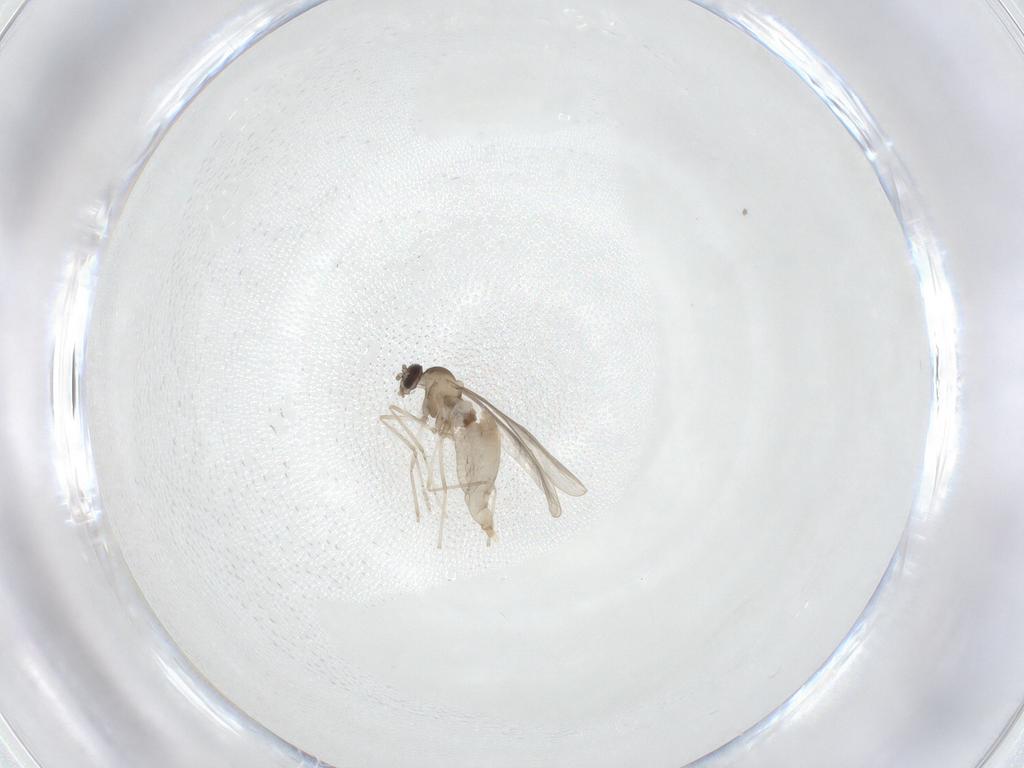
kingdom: Animalia
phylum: Arthropoda
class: Insecta
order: Diptera
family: Cecidomyiidae
